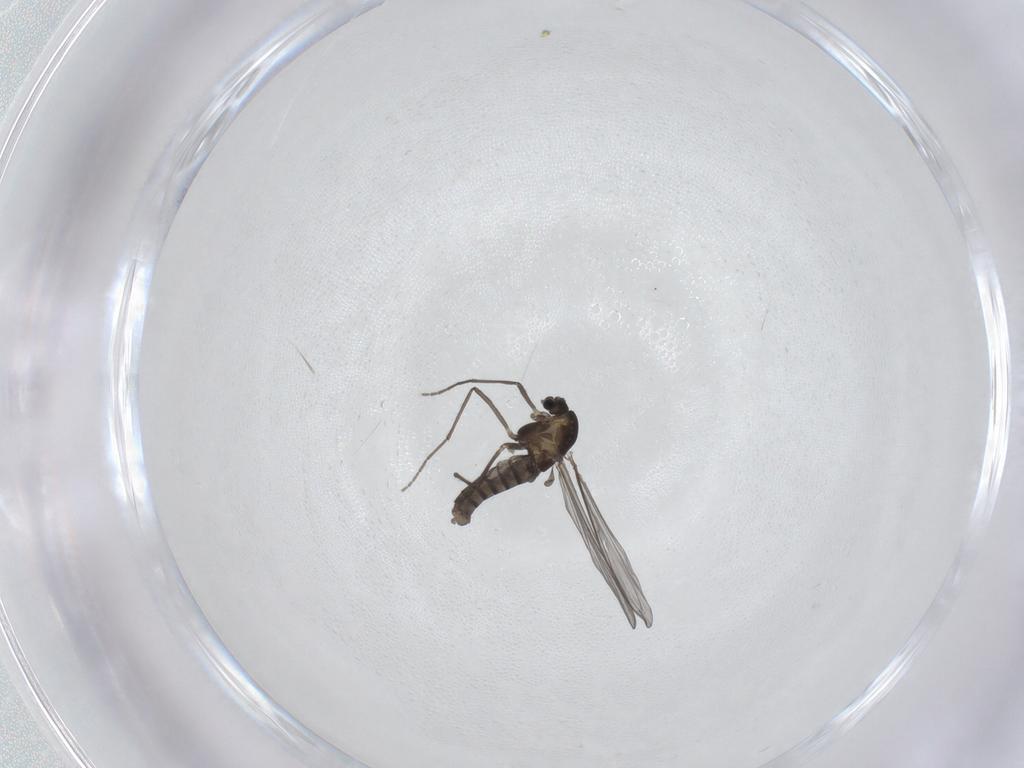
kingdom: Animalia
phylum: Arthropoda
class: Insecta
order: Diptera
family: Chironomidae
